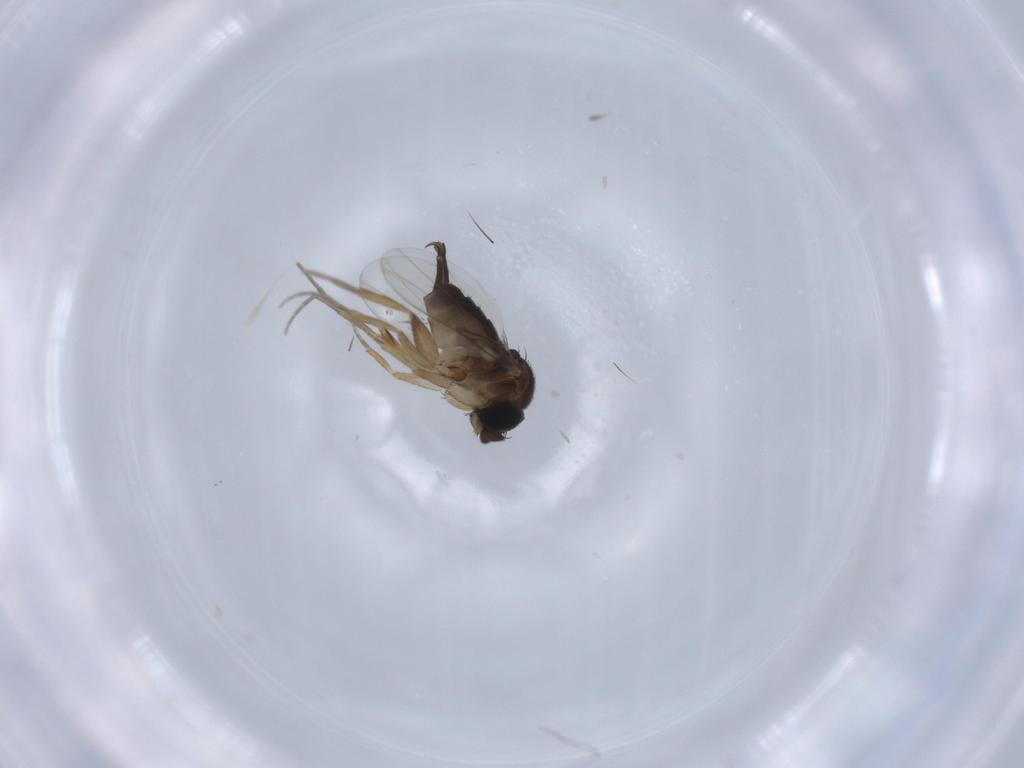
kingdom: Animalia
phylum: Arthropoda
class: Insecta
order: Diptera
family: Phoridae
